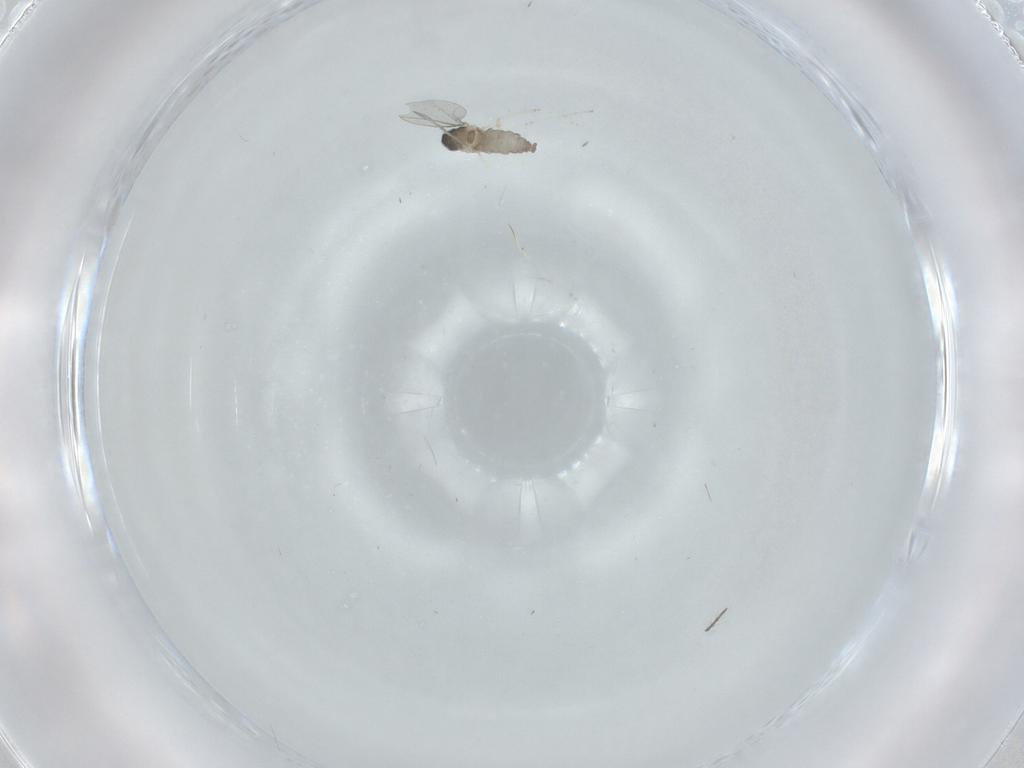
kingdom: Animalia
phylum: Arthropoda
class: Insecta
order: Diptera
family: Cecidomyiidae
